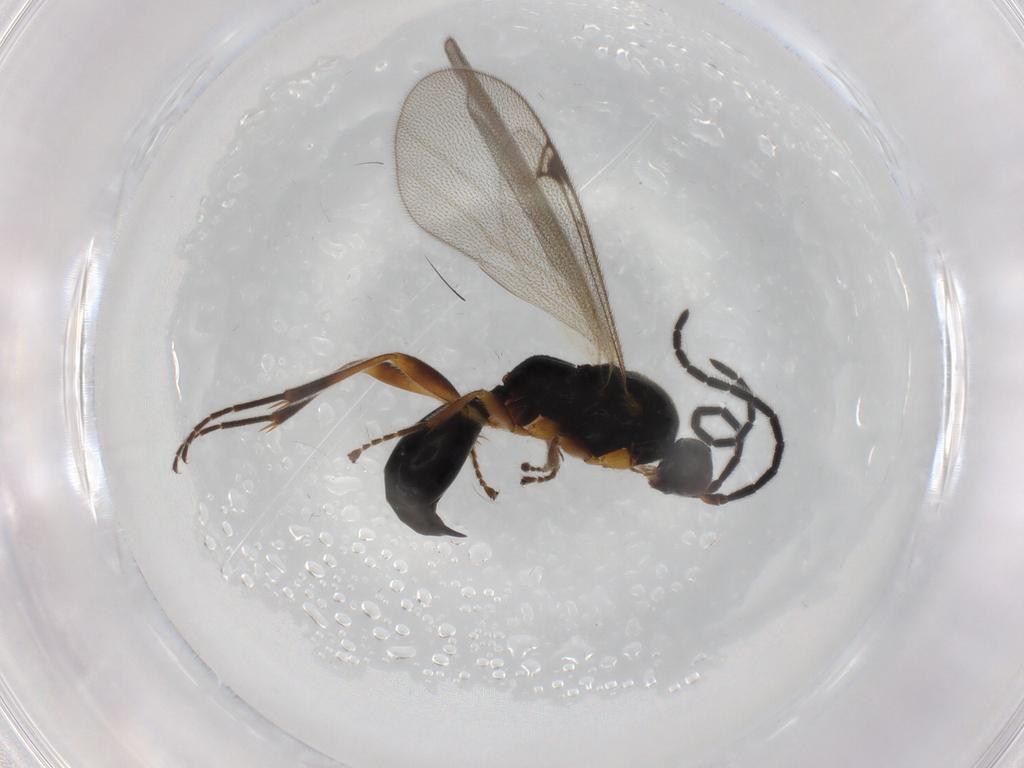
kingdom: Animalia
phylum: Arthropoda
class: Insecta
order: Hymenoptera
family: Proctotrupidae
